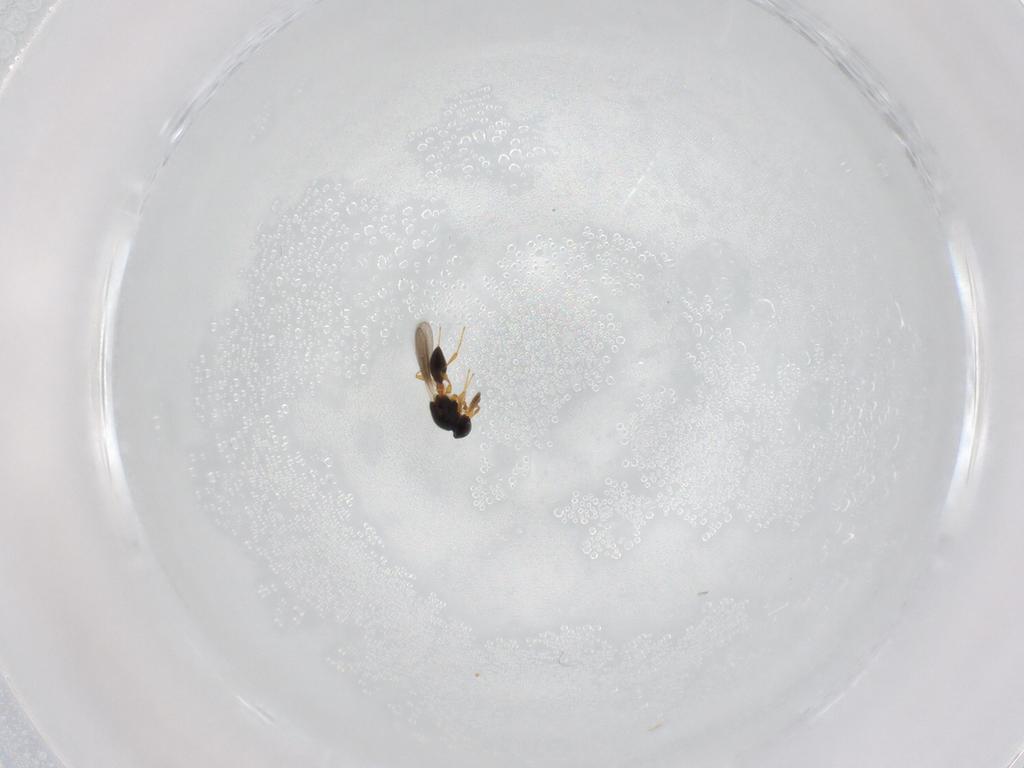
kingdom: Animalia
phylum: Arthropoda
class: Insecta
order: Hymenoptera
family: Platygastridae
